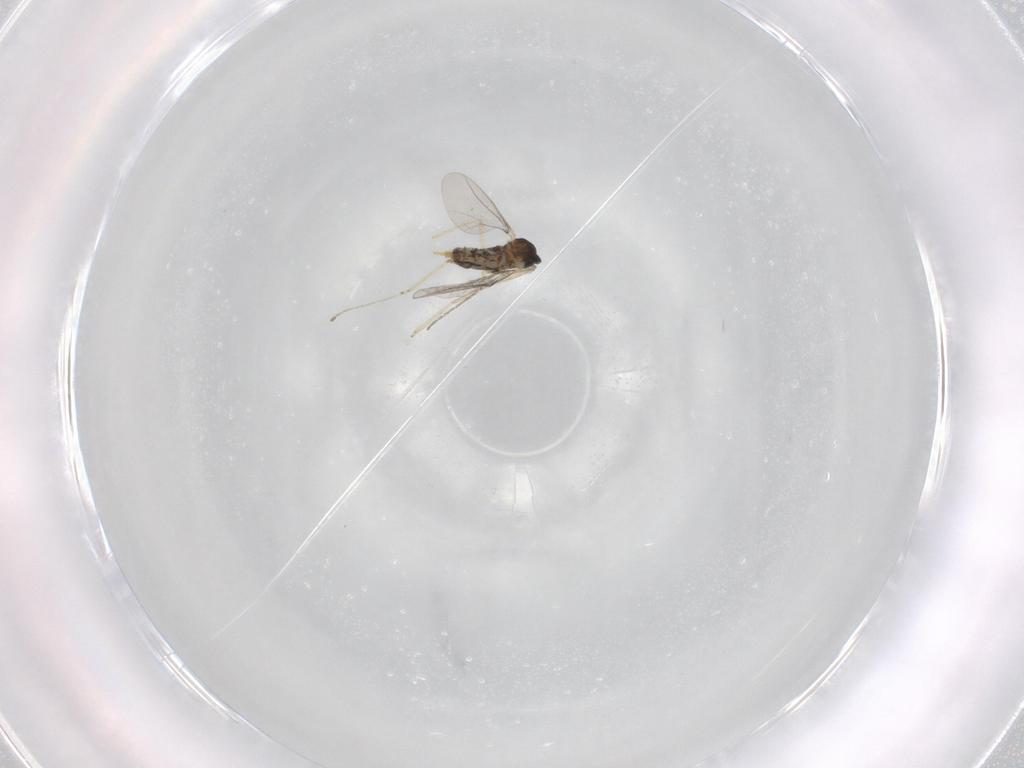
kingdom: Animalia
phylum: Arthropoda
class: Insecta
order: Diptera
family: Cecidomyiidae
